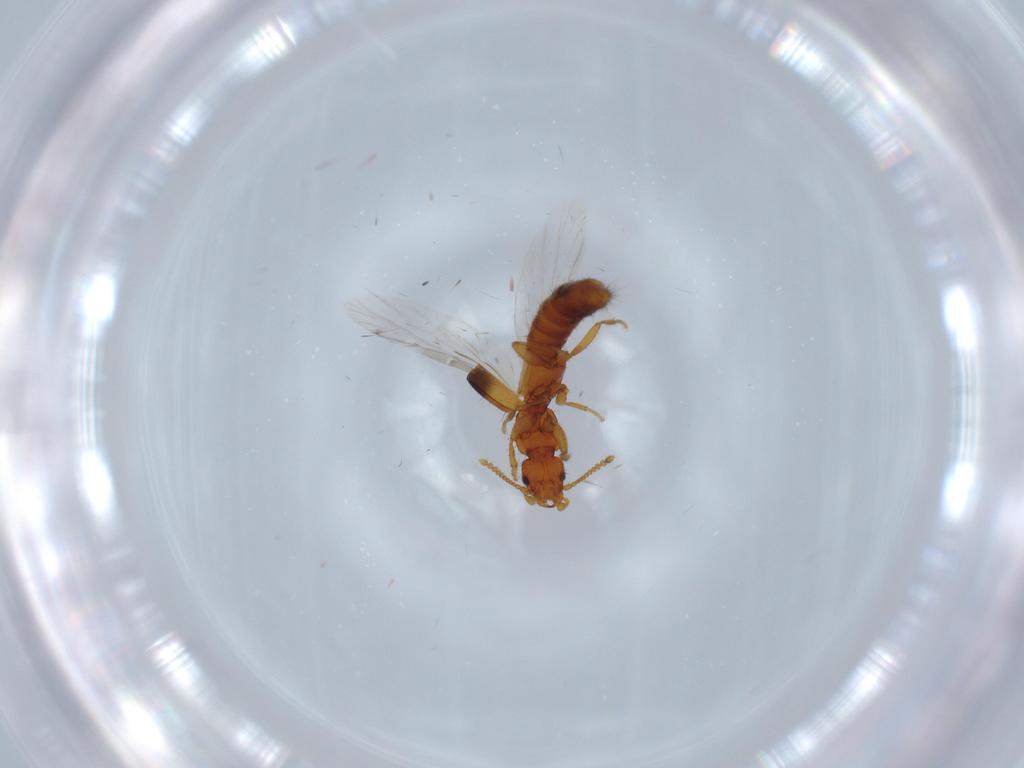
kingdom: Animalia
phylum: Arthropoda
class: Insecta
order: Coleoptera
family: Staphylinidae
